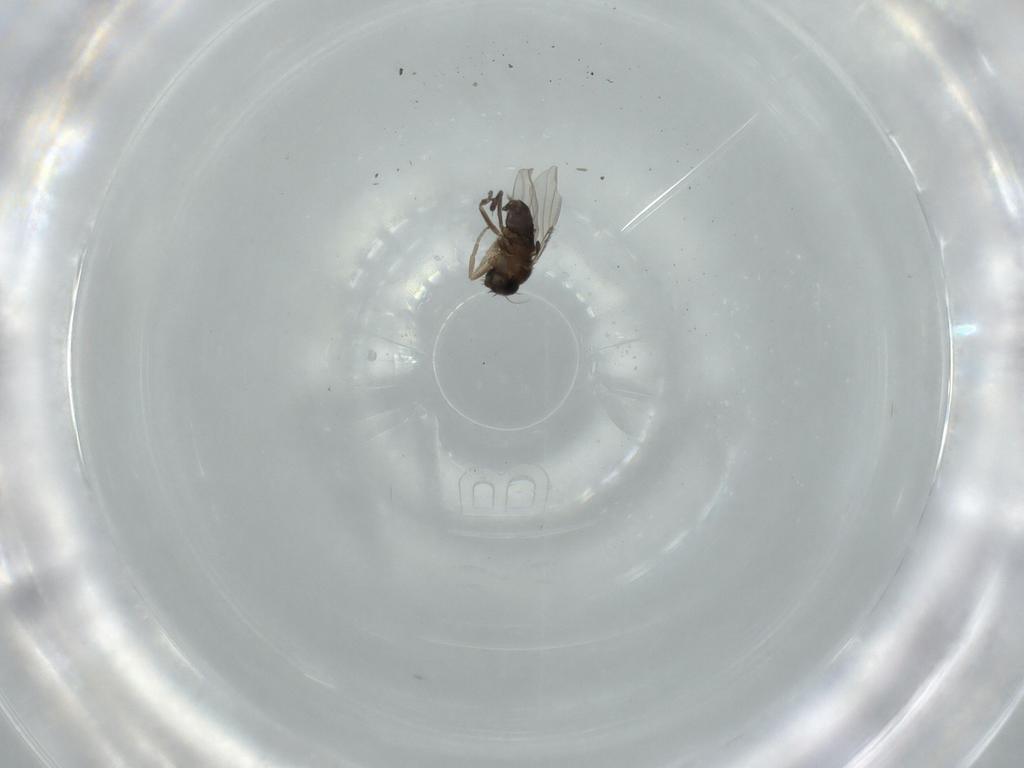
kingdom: Animalia
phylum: Arthropoda
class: Insecta
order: Diptera
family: Phoridae
